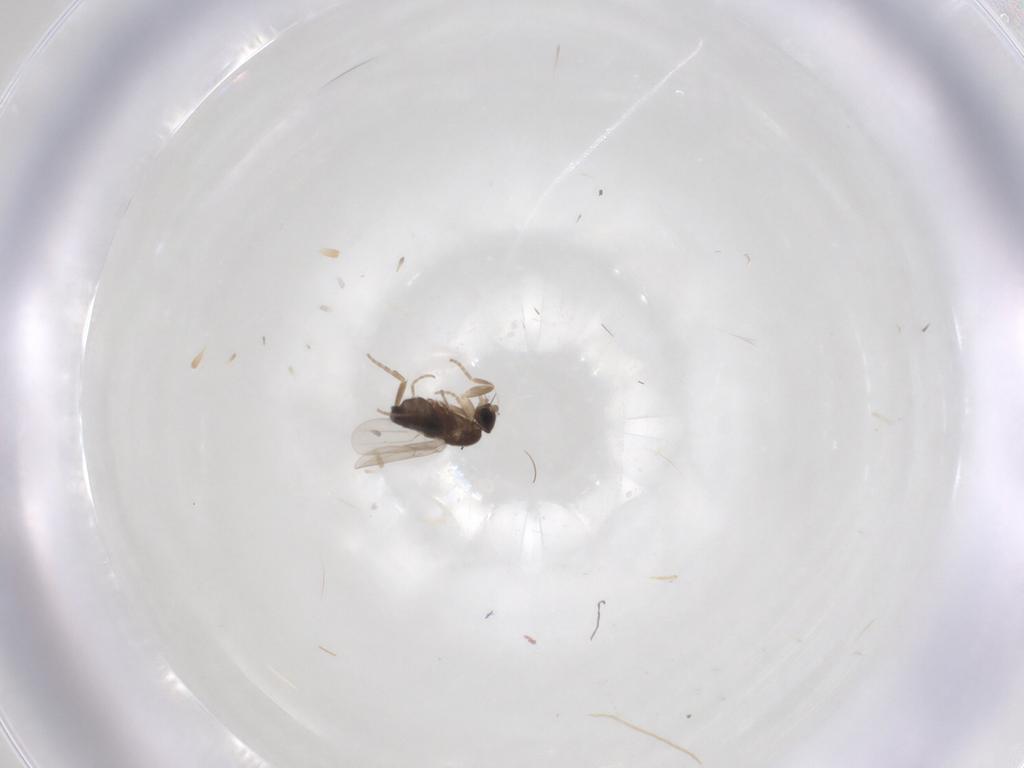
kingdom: Animalia
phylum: Arthropoda
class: Insecta
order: Diptera
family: Phoridae
